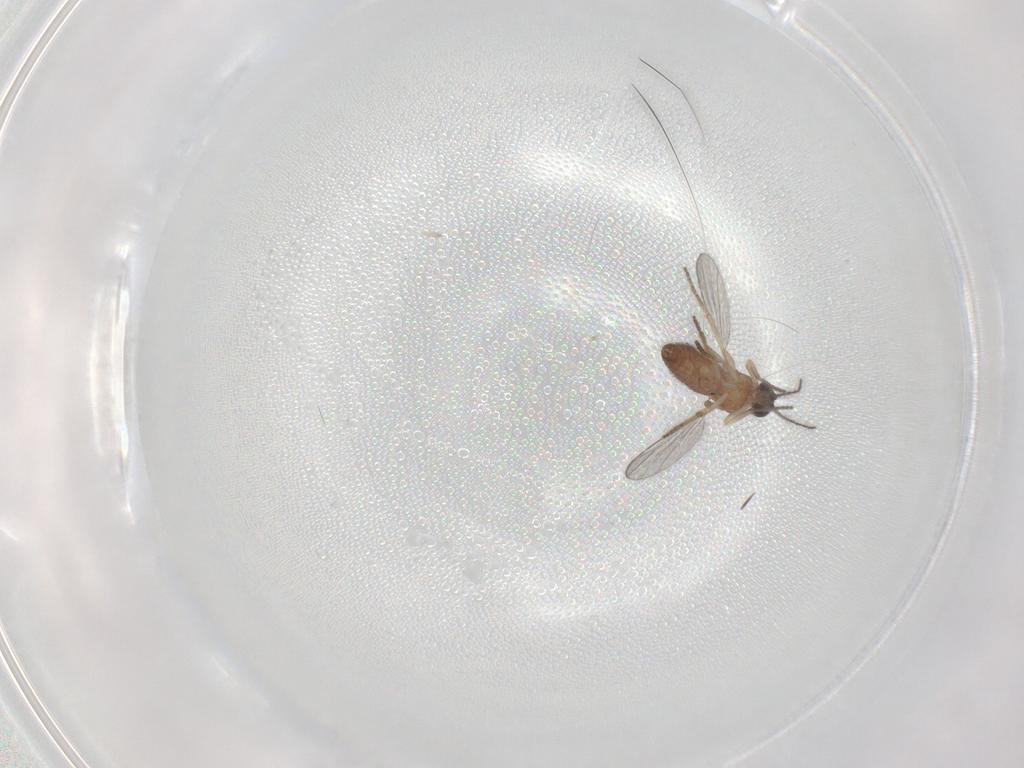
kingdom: Animalia
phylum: Arthropoda
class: Insecta
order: Diptera
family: Ceratopogonidae
